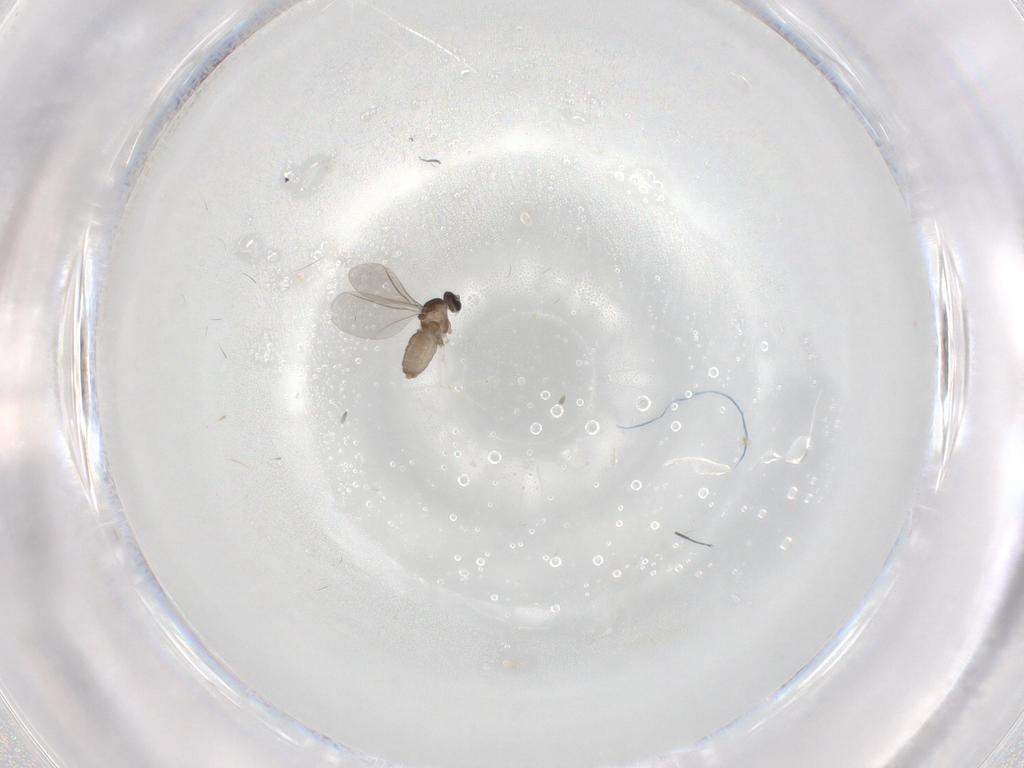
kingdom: Animalia
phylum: Arthropoda
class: Insecta
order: Diptera
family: Cecidomyiidae
